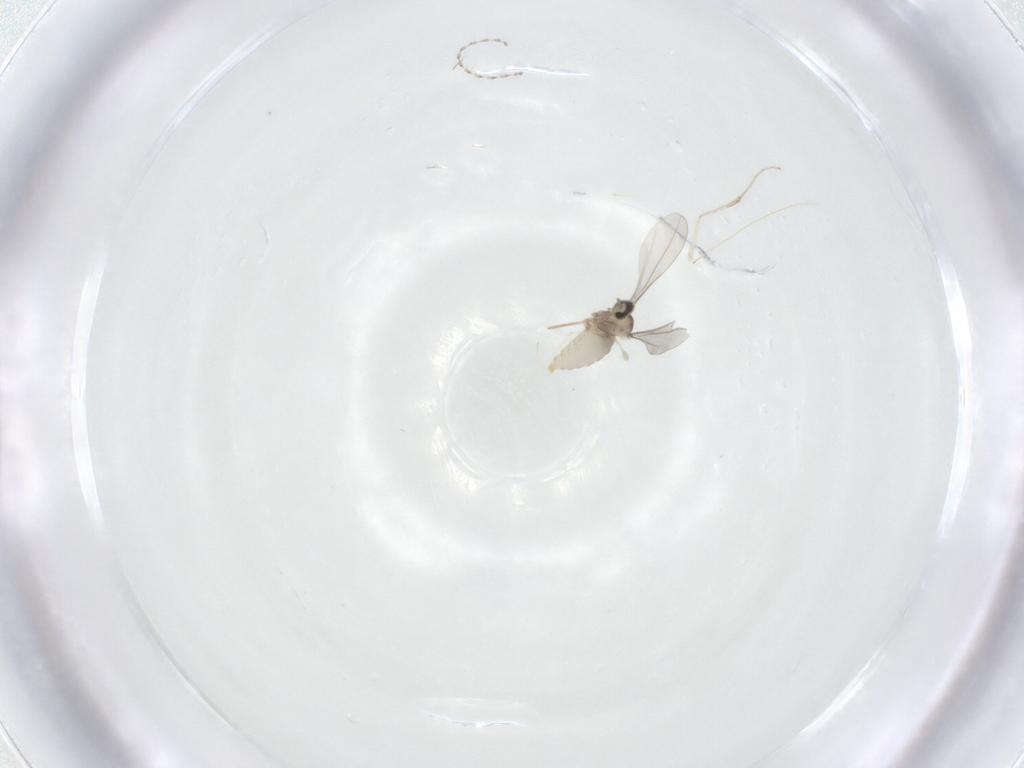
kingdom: Animalia
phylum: Arthropoda
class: Insecta
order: Diptera
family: Cecidomyiidae
